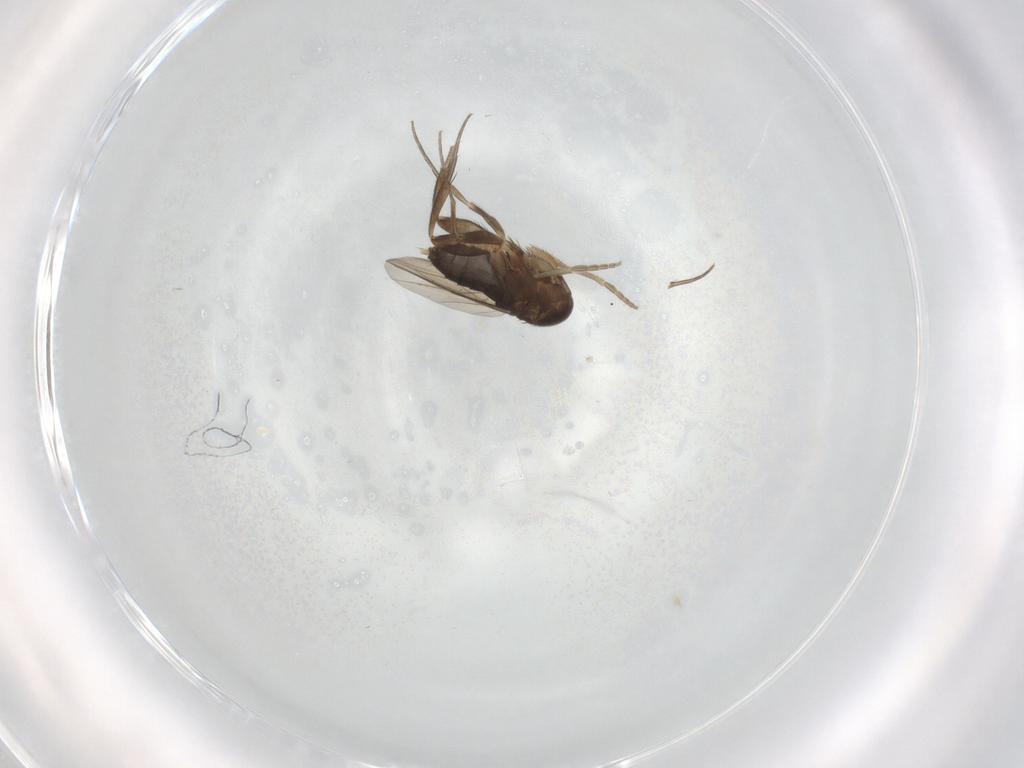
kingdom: Animalia
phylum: Arthropoda
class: Insecta
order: Diptera
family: Phoridae
